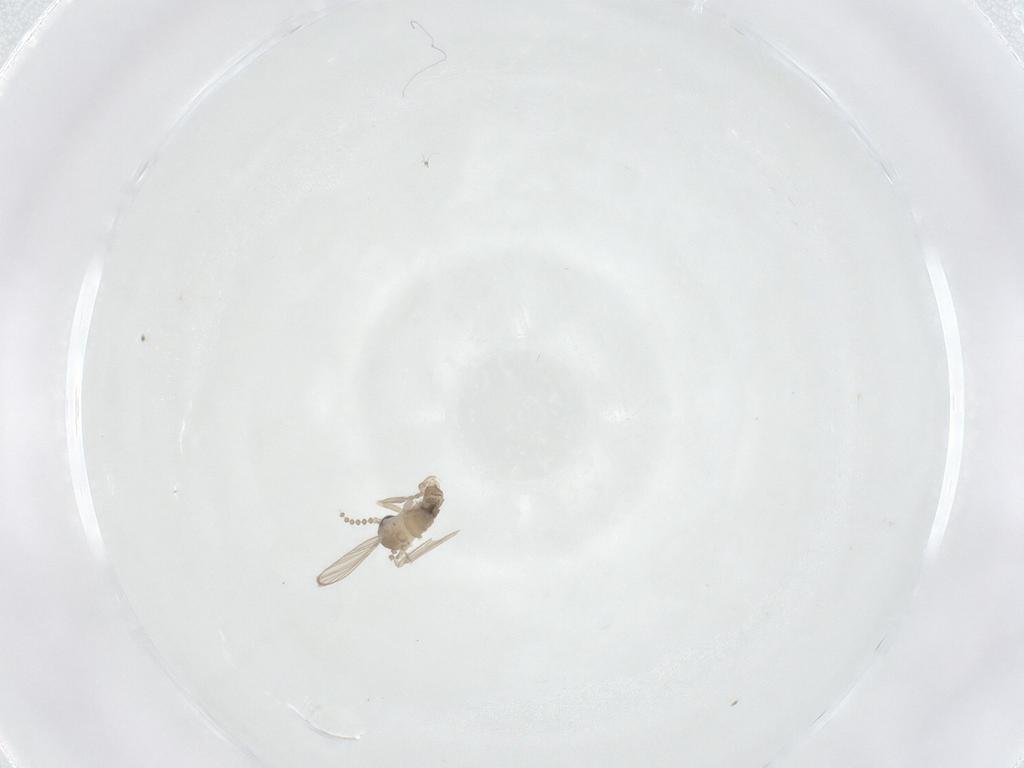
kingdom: Animalia
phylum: Arthropoda
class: Insecta
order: Diptera
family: Psychodidae
